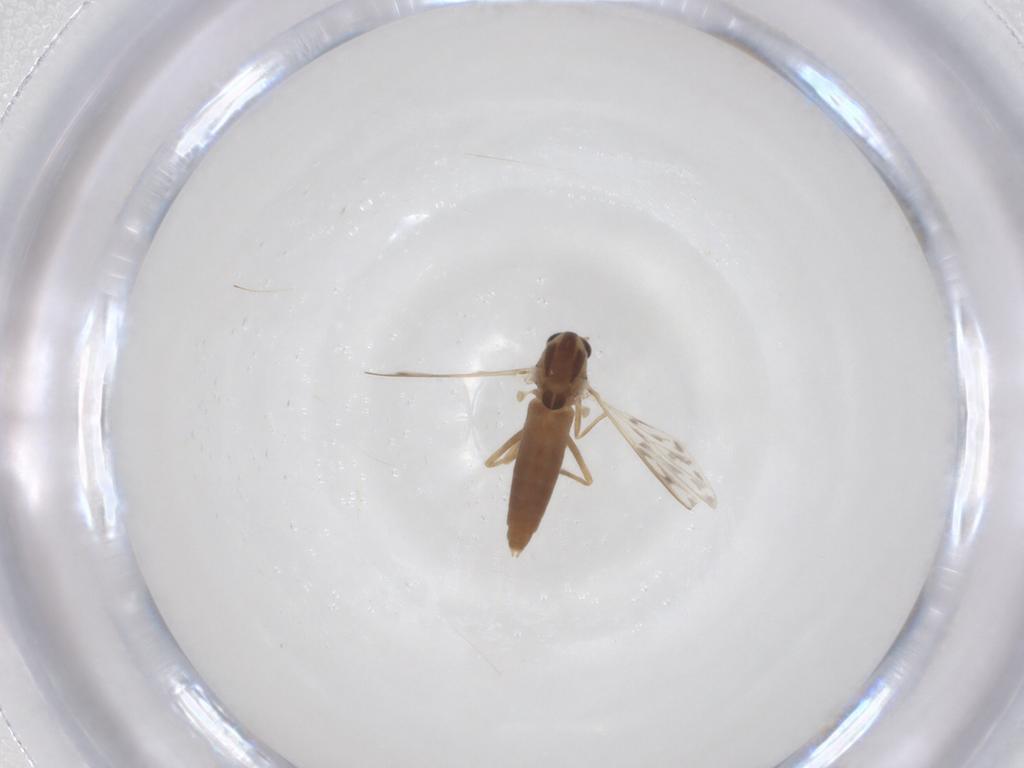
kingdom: Animalia
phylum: Arthropoda
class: Insecta
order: Diptera
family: Chironomidae
